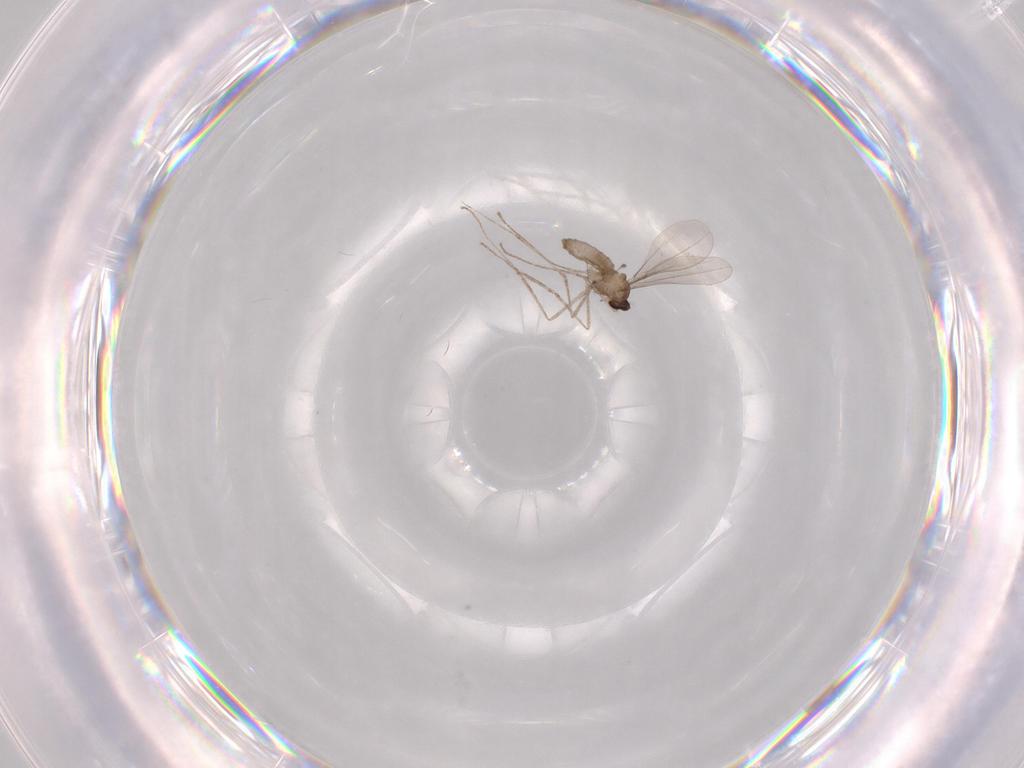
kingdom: Animalia
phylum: Arthropoda
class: Insecta
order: Diptera
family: Cecidomyiidae
